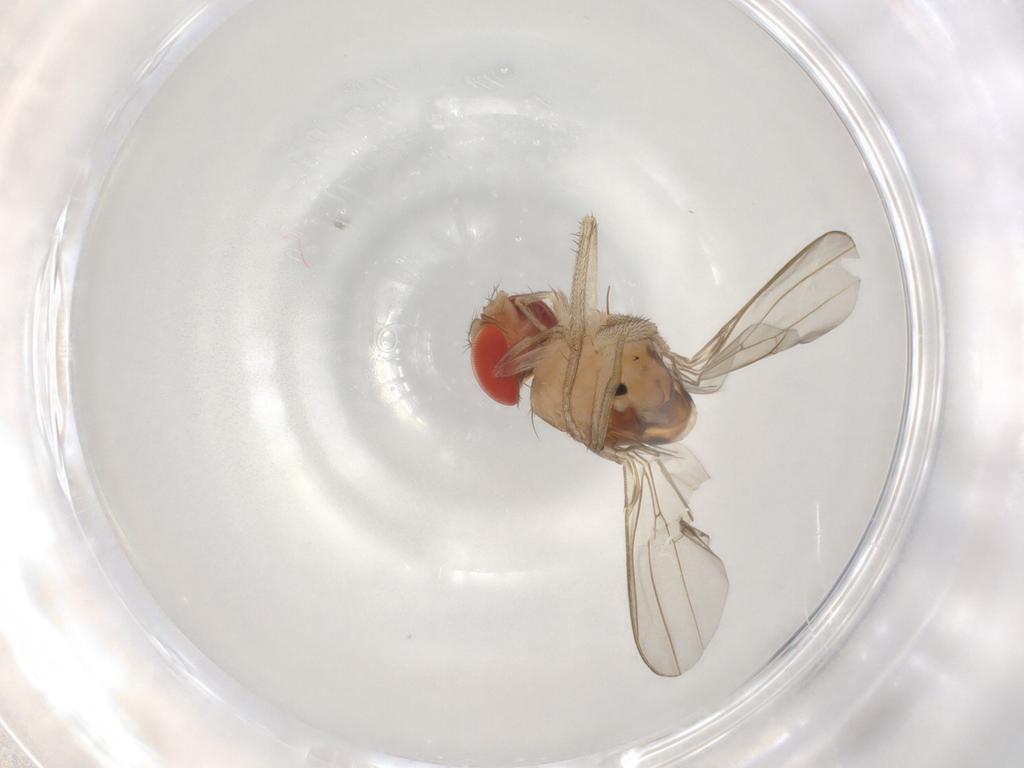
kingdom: Animalia
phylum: Arthropoda
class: Insecta
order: Diptera
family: Drosophilidae
